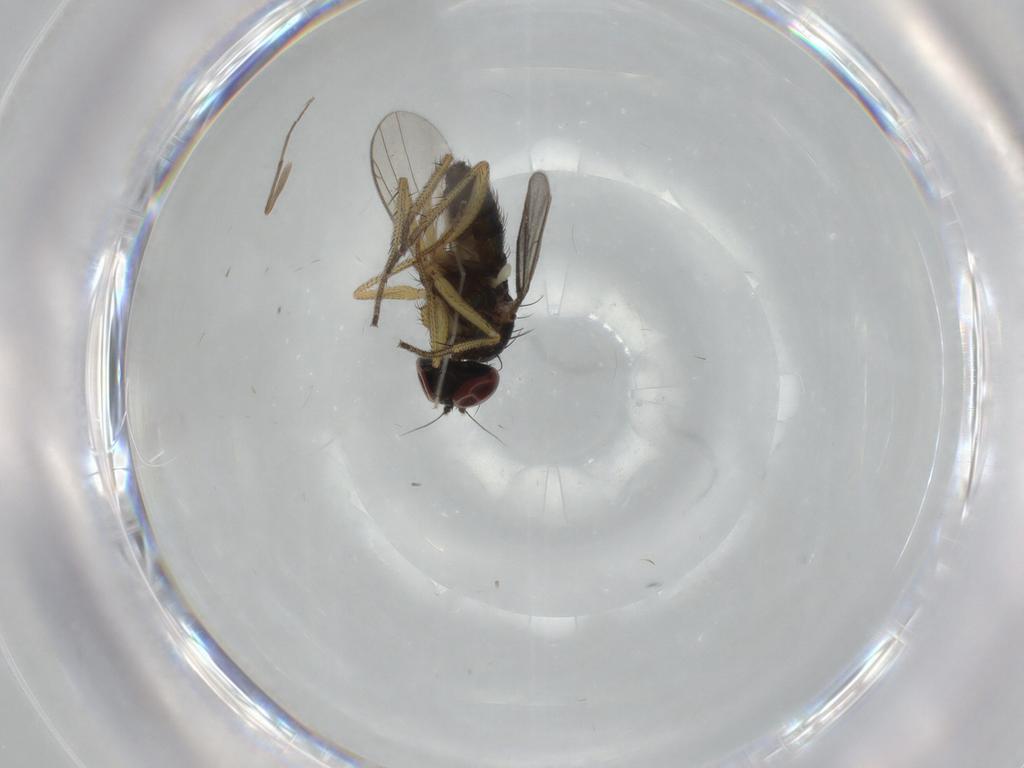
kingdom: Animalia
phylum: Arthropoda
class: Insecta
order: Diptera
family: Dolichopodidae
